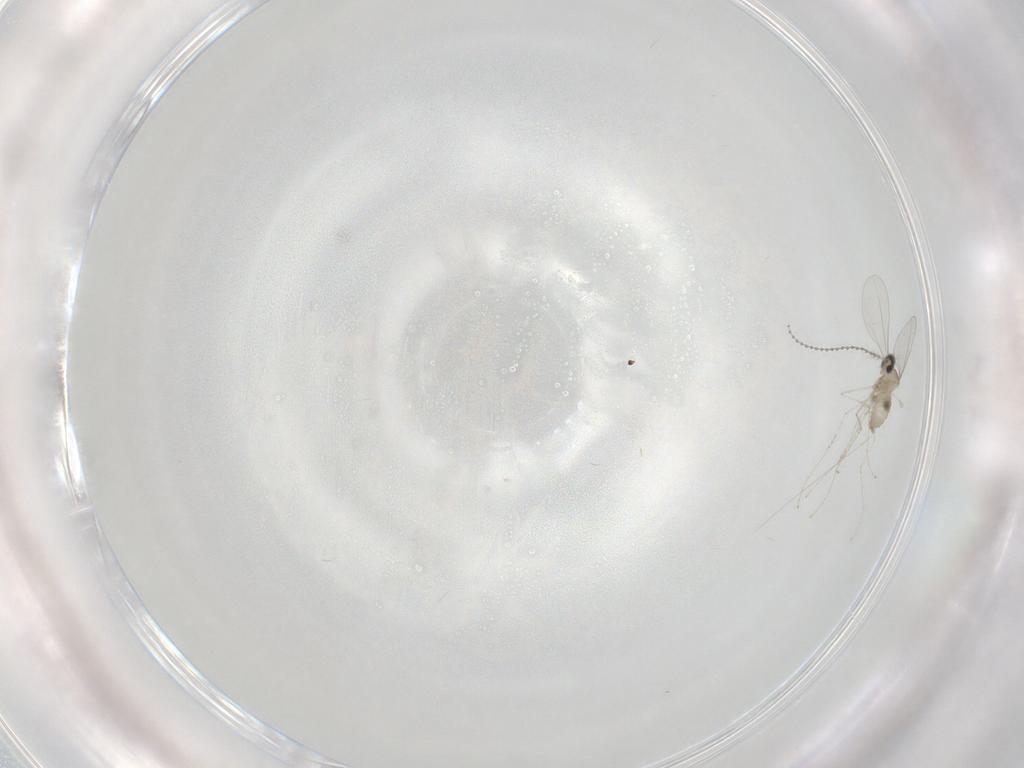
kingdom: Animalia
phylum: Arthropoda
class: Insecta
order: Diptera
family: Cecidomyiidae
